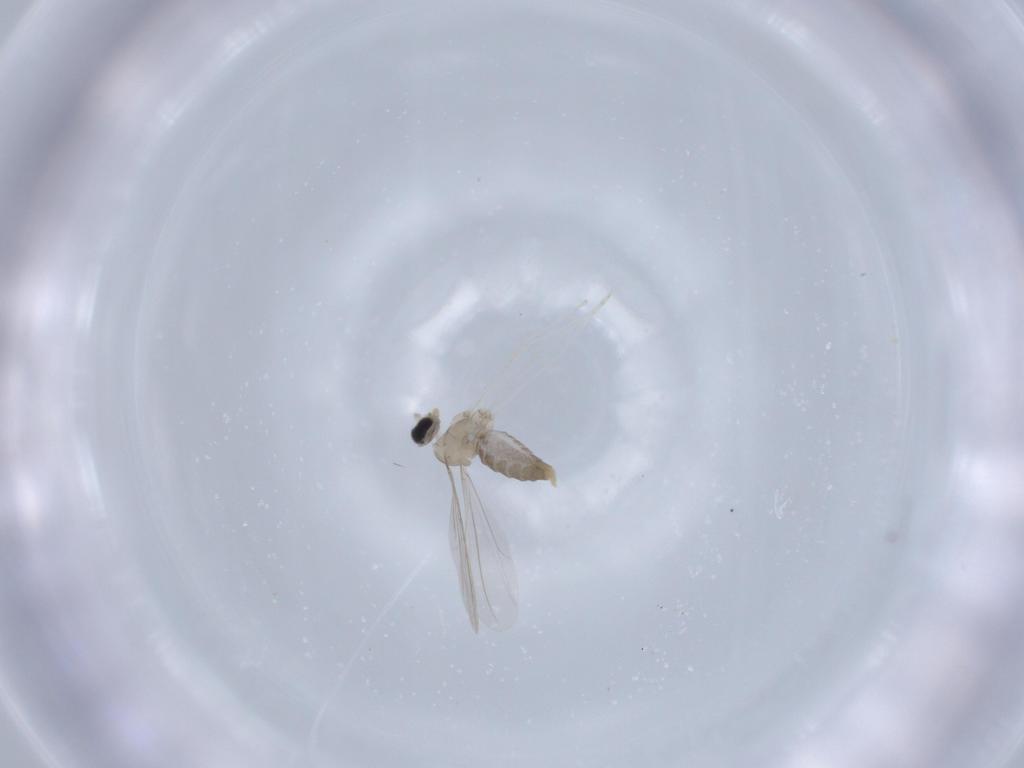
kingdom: Animalia
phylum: Arthropoda
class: Insecta
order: Diptera
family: Cecidomyiidae
